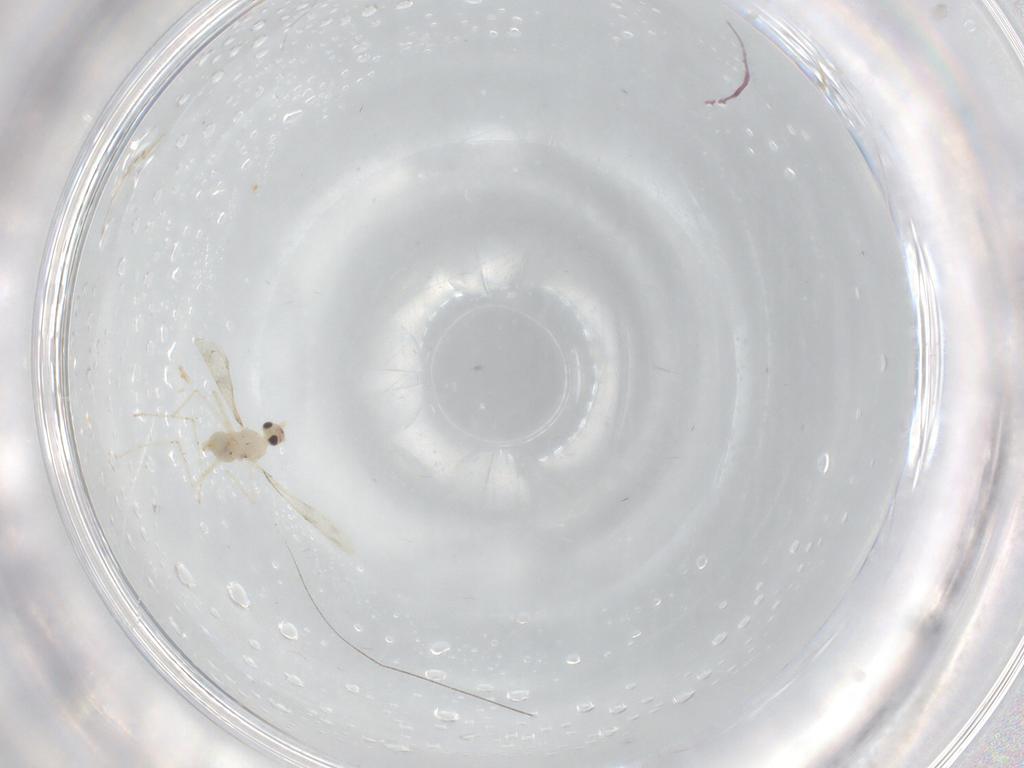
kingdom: Animalia
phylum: Arthropoda
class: Insecta
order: Diptera
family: Cecidomyiidae
